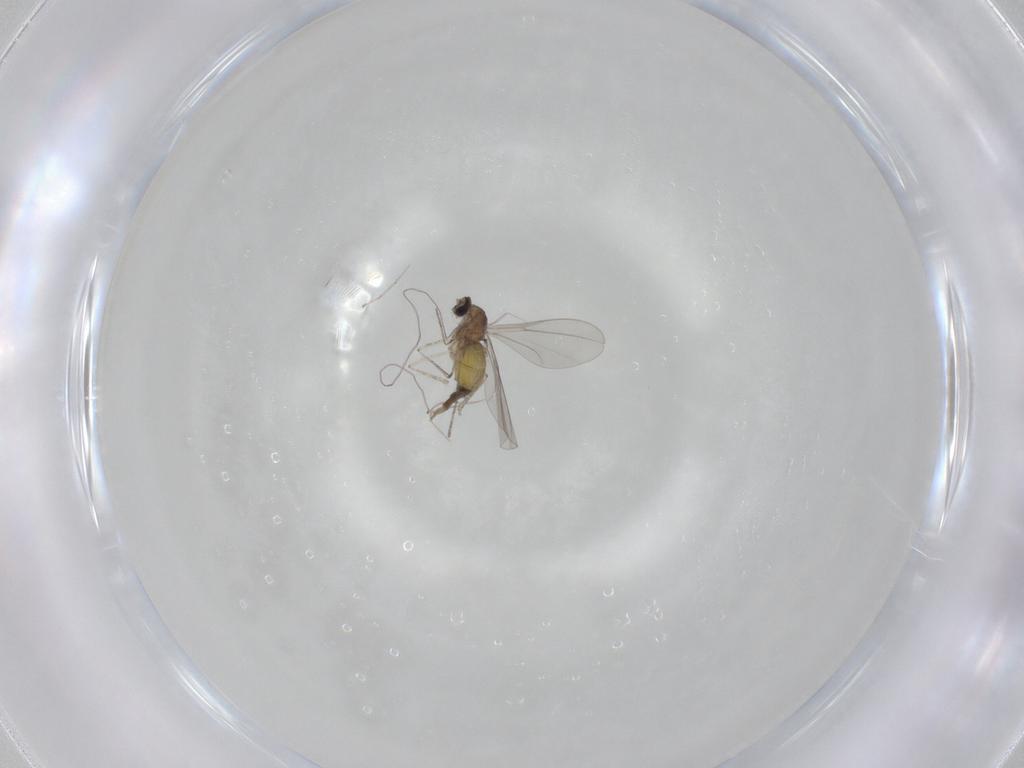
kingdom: Animalia
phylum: Arthropoda
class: Insecta
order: Diptera
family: Cecidomyiidae
